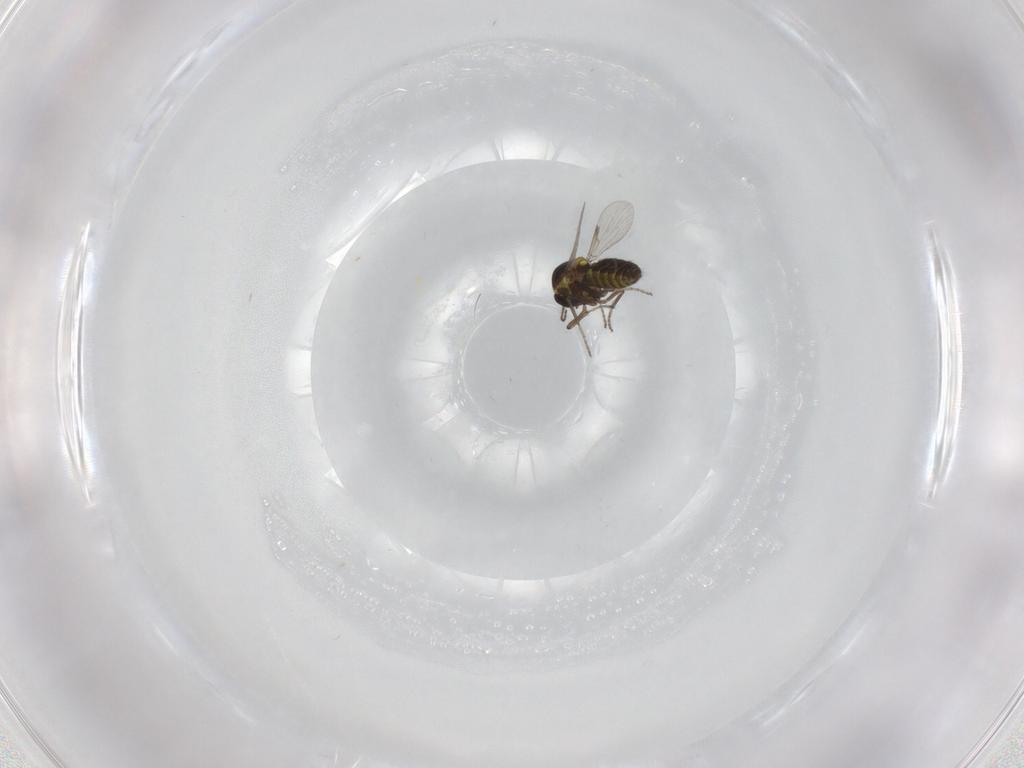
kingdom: Animalia
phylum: Arthropoda
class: Insecta
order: Diptera
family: Ceratopogonidae
